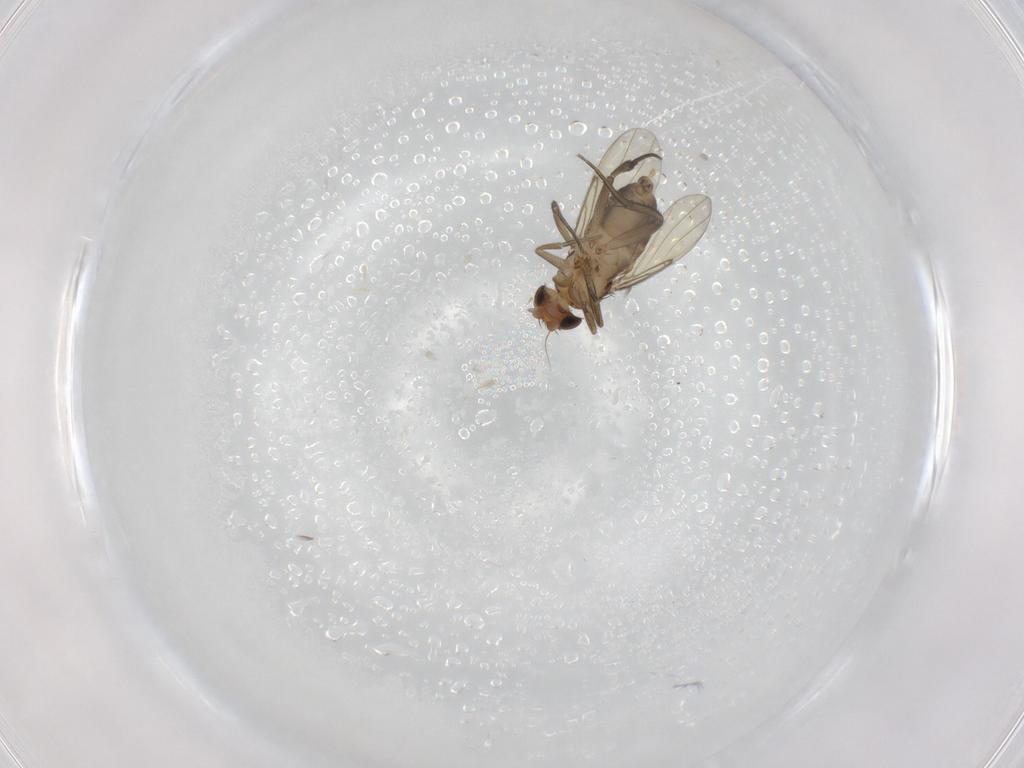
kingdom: Animalia
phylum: Arthropoda
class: Insecta
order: Diptera
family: Phoridae
